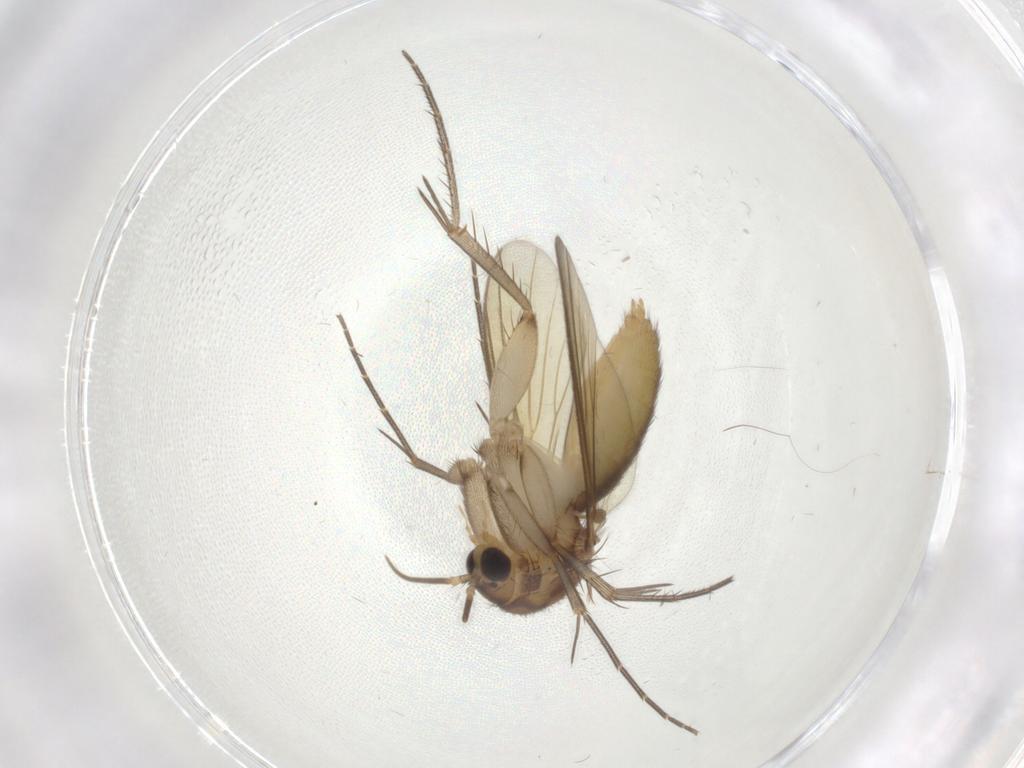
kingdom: Animalia
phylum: Arthropoda
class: Insecta
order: Diptera
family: Mycetophilidae
